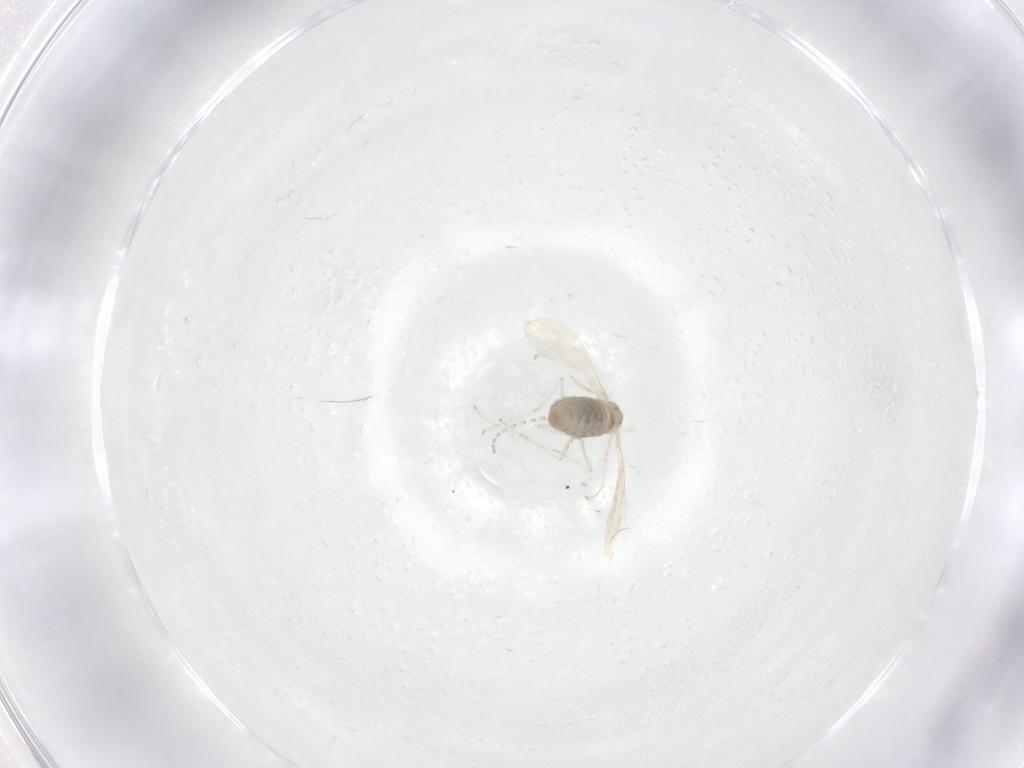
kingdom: Animalia
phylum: Arthropoda
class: Insecta
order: Diptera
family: Cecidomyiidae
